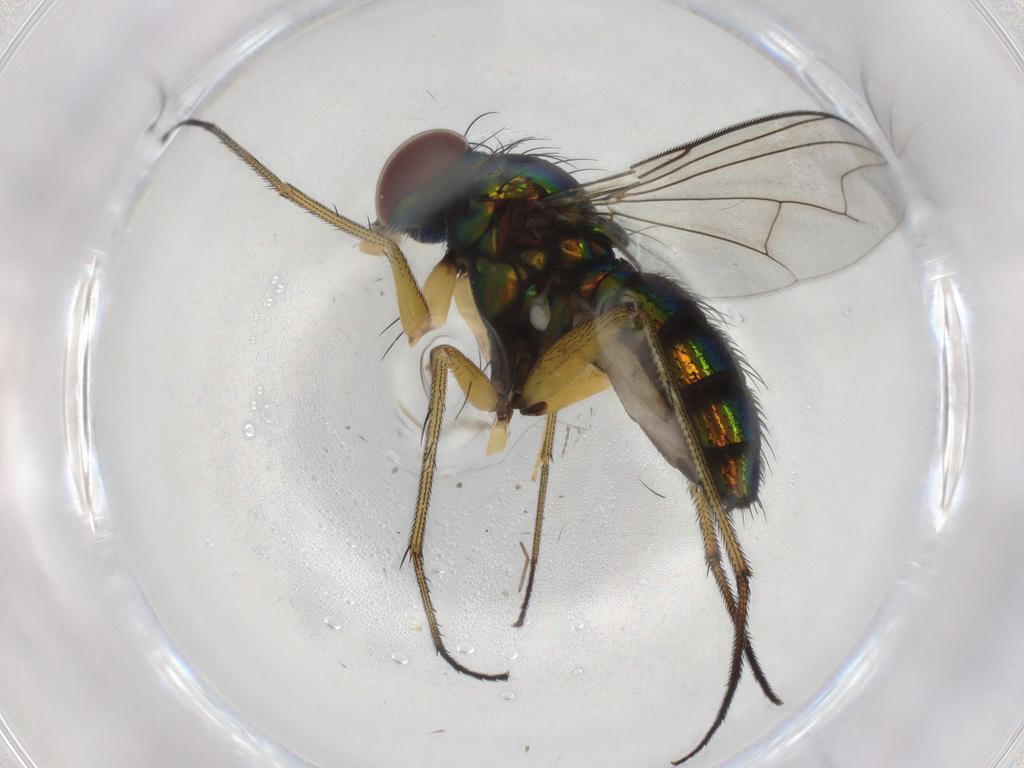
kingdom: Animalia
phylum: Arthropoda
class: Insecta
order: Diptera
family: Dolichopodidae
